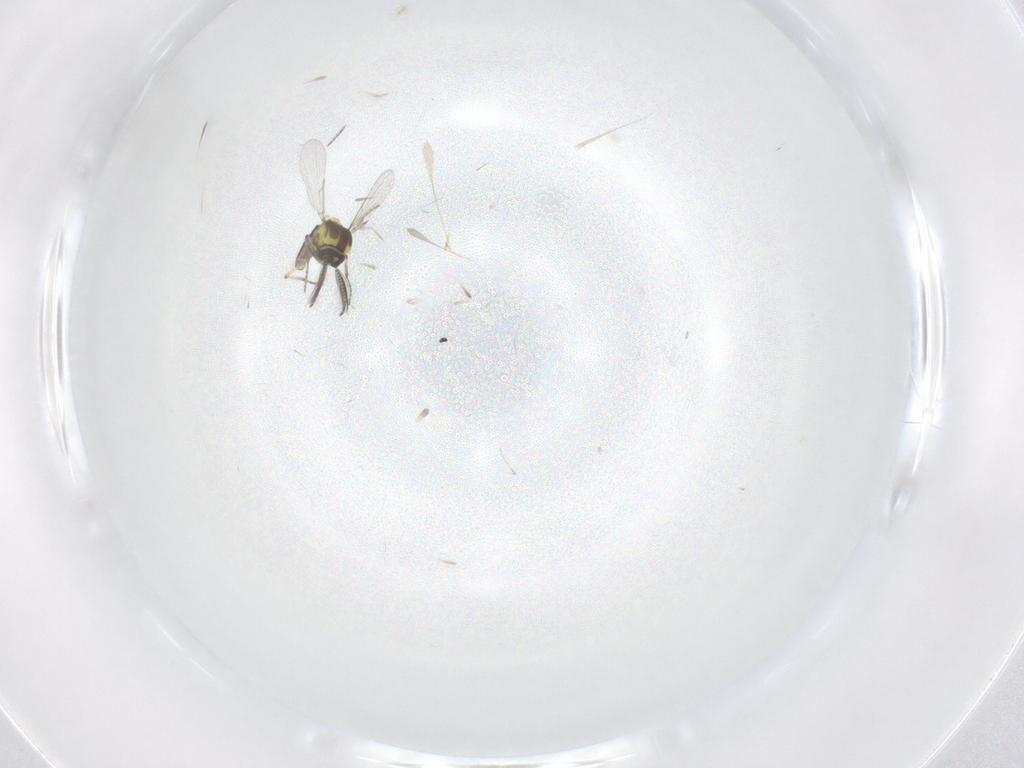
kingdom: Animalia
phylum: Arthropoda
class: Insecta
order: Diptera
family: Ceratopogonidae
